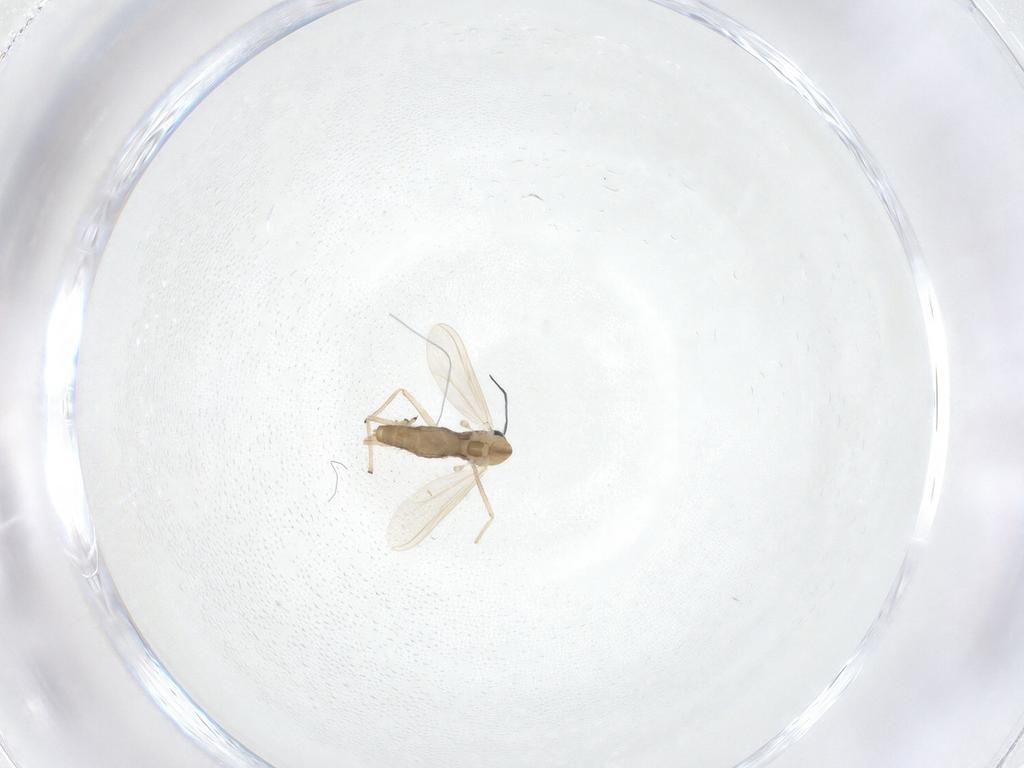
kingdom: Animalia
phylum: Arthropoda
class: Insecta
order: Diptera
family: Chironomidae
